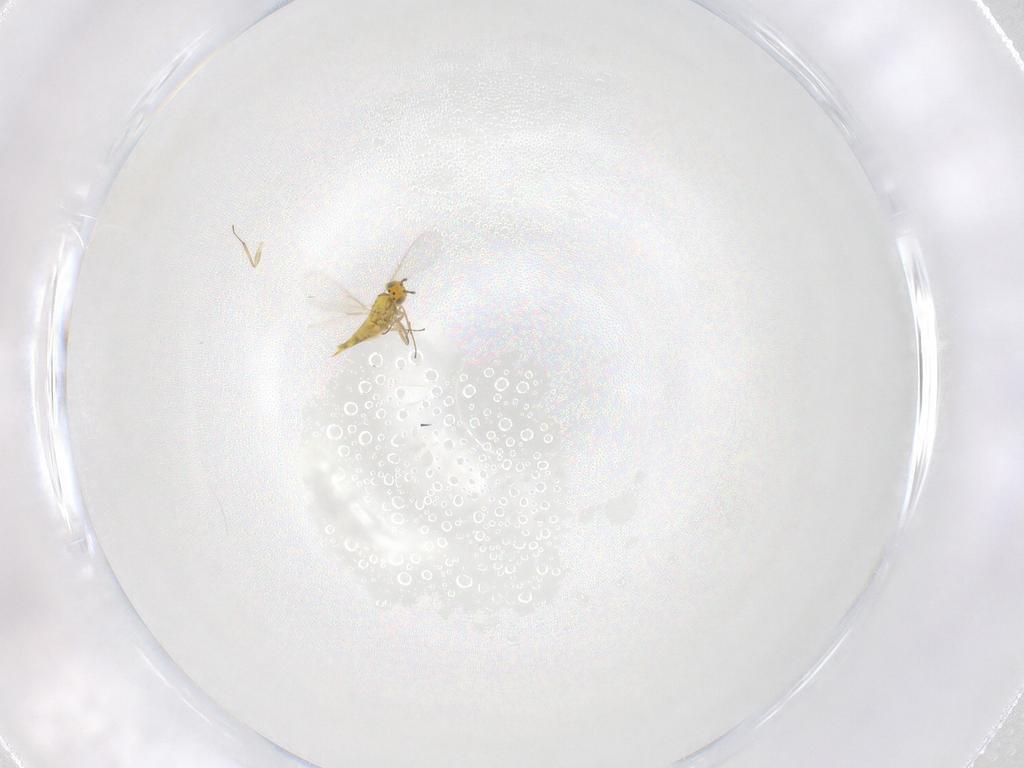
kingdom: Animalia
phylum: Arthropoda
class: Insecta
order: Hymenoptera
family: Aphelinidae
